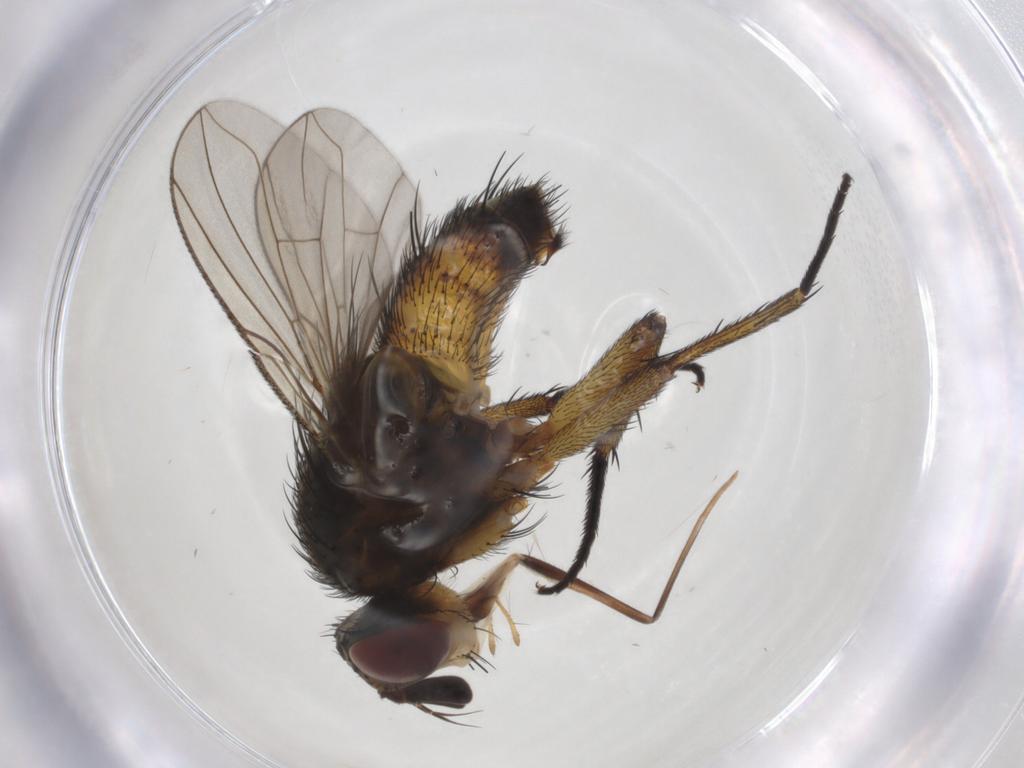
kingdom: Animalia
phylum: Arthropoda
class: Insecta
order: Diptera
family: Tachinidae
